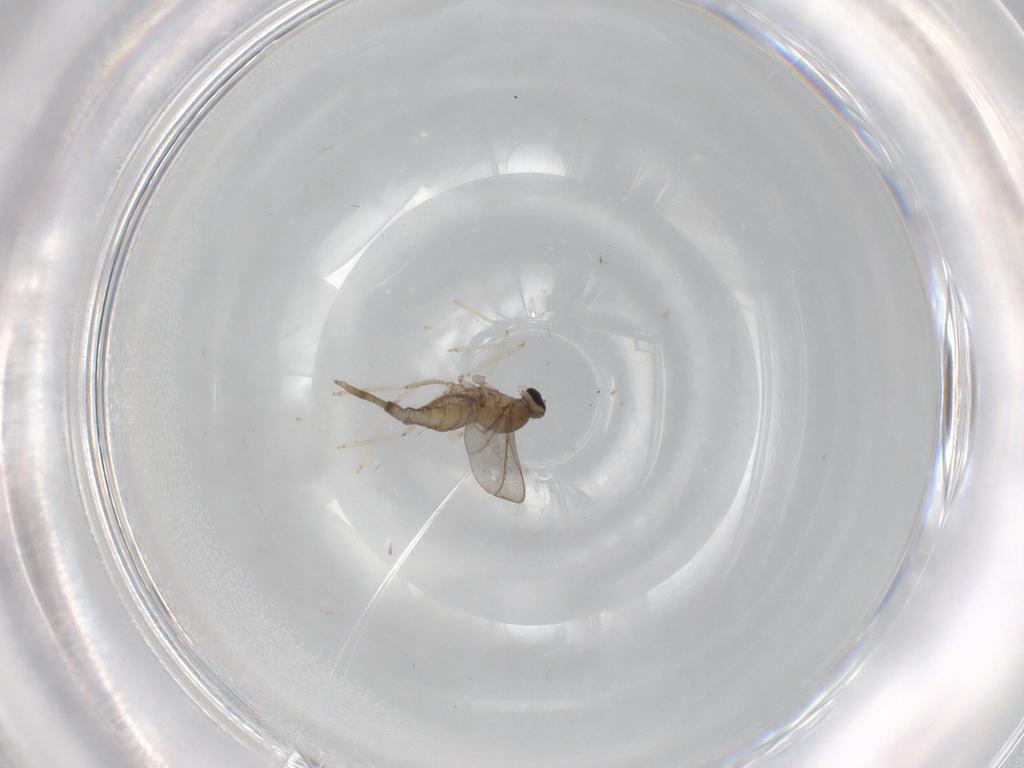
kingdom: Animalia
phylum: Arthropoda
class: Insecta
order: Diptera
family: Cecidomyiidae
